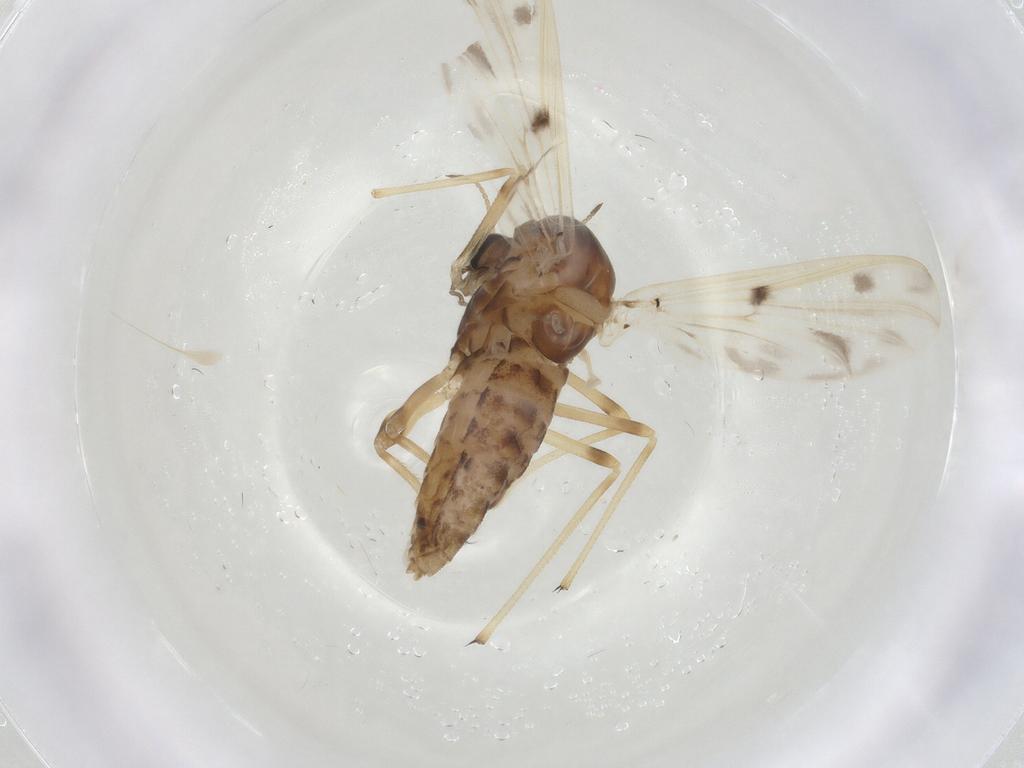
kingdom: Animalia
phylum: Arthropoda
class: Insecta
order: Diptera
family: Chironomidae
